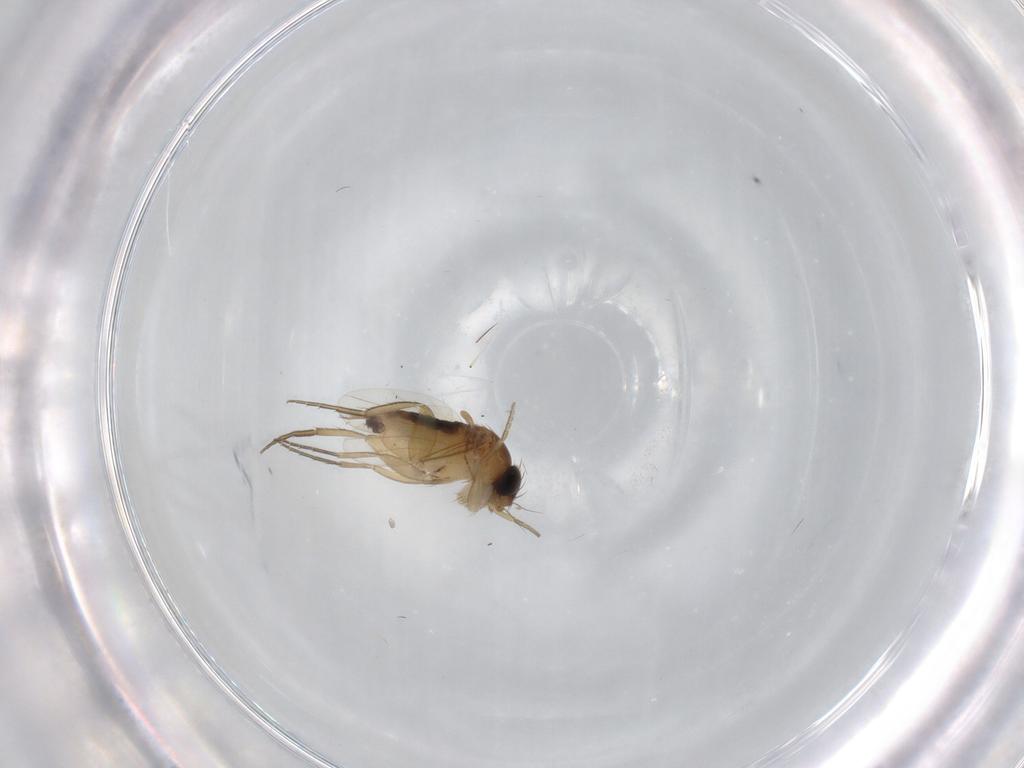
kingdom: Animalia
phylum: Arthropoda
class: Insecta
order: Diptera
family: Phoridae
